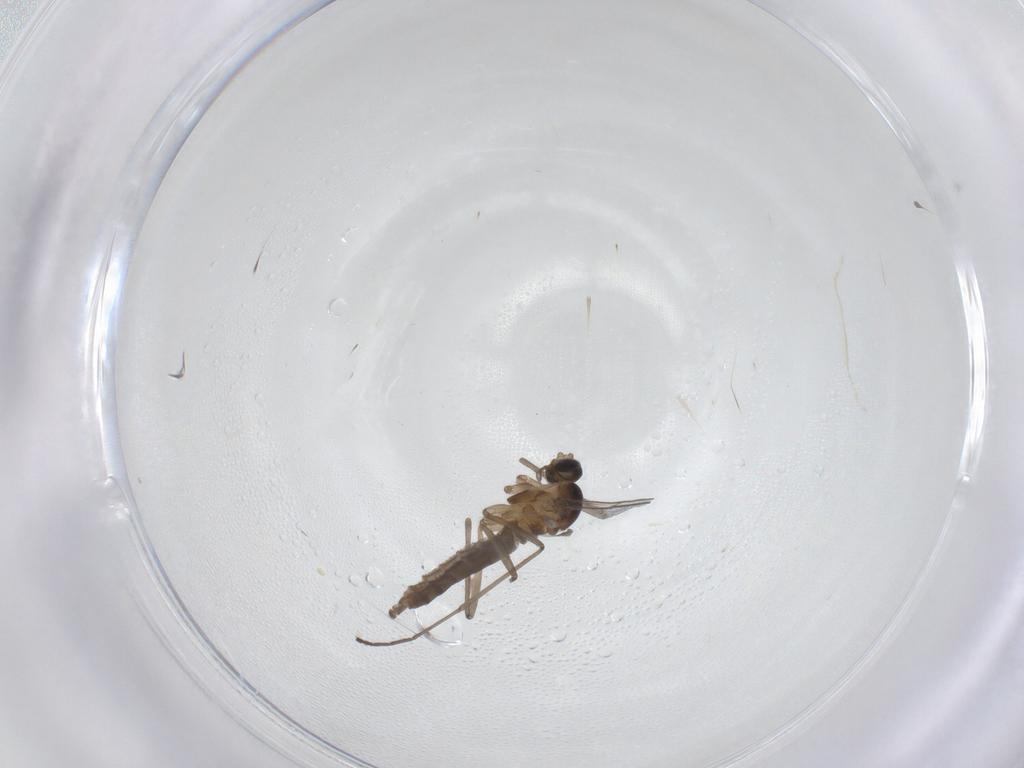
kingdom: Animalia
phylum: Arthropoda
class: Insecta
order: Diptera
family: Cecidomyiidae
